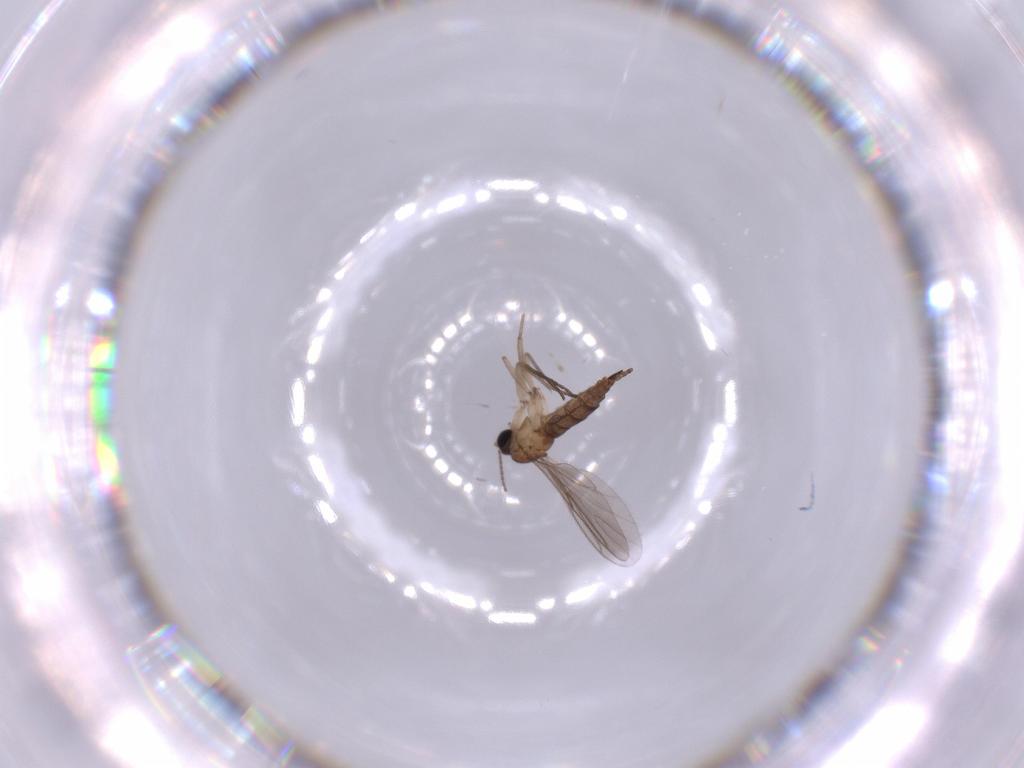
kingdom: Animalia
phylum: Arthropoda
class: Insecta
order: Diptera
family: Sciaridae
